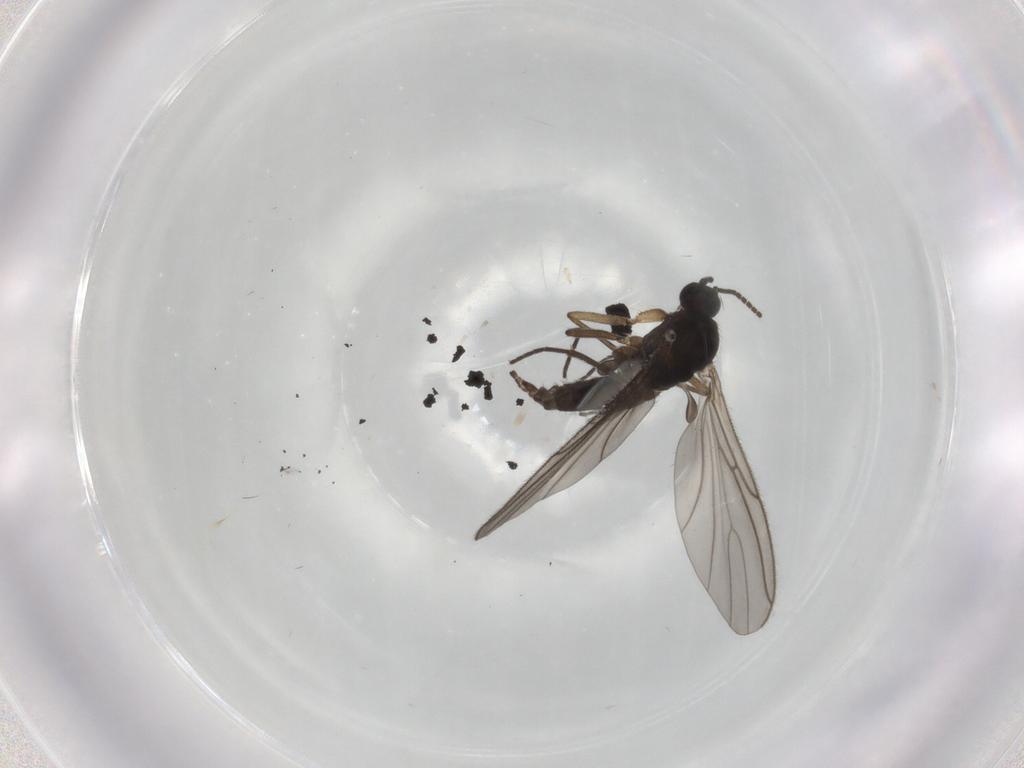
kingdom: Animalia
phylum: Arthropoda
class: Insecta
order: Diptera
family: Sciaridae
